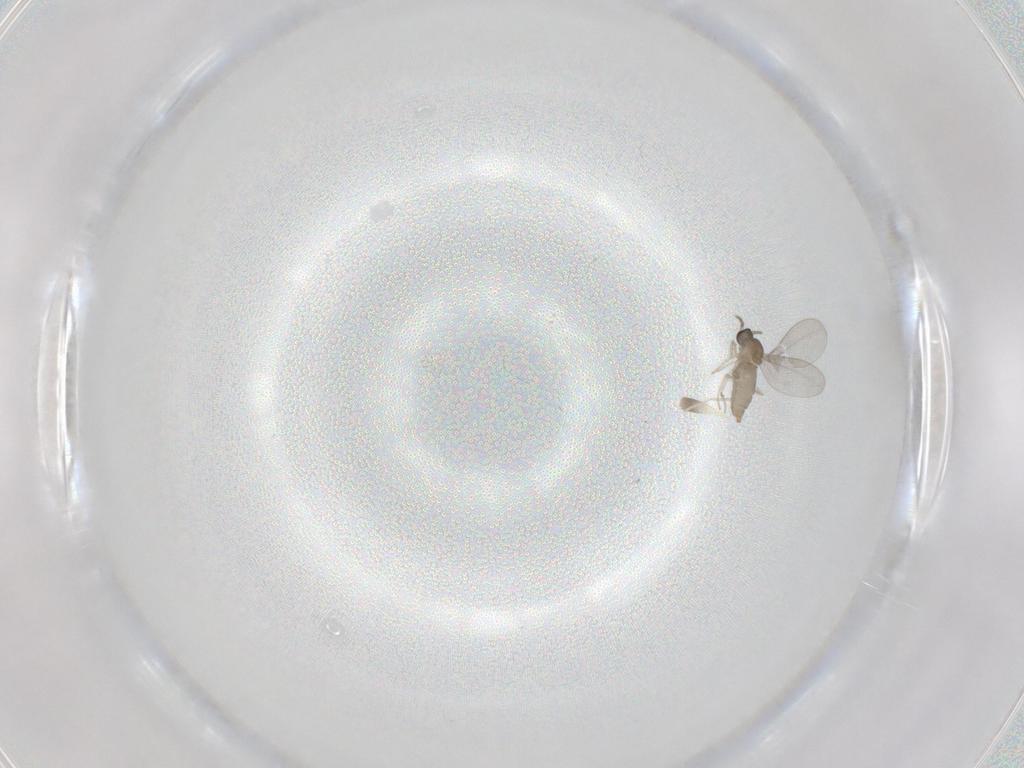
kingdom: Animalia
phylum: Arthropoda
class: Insecta
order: Diptera
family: Cecidomyiidae
